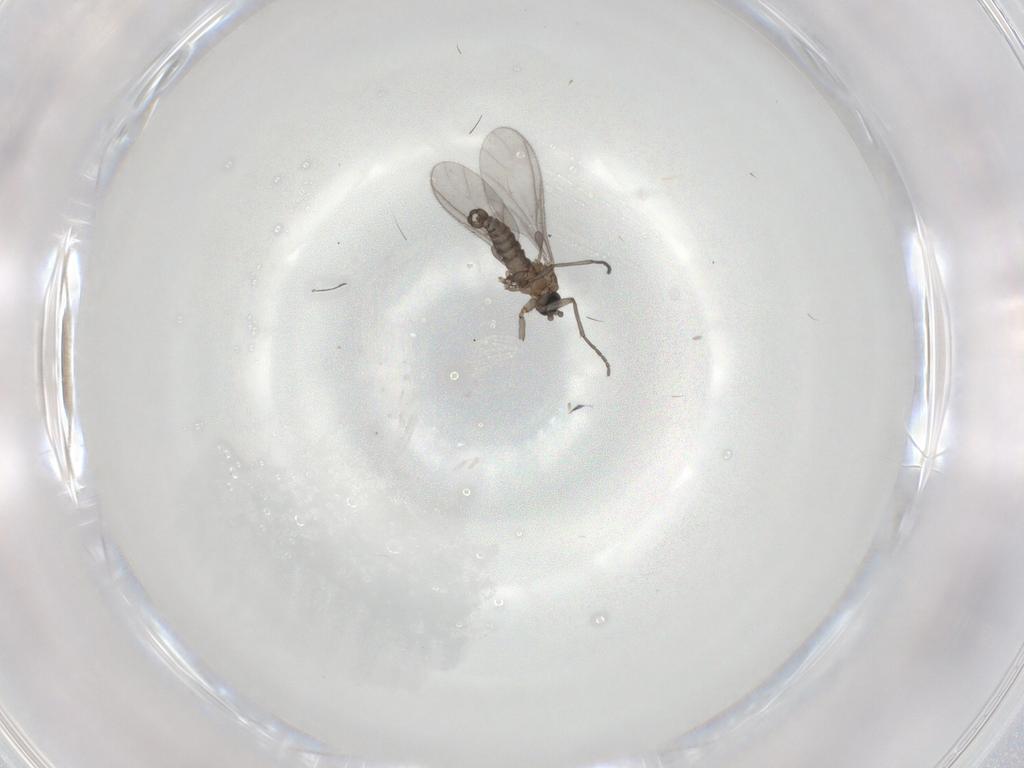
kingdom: Animalia
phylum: Arthropoda
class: Insecta
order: Diptera
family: Sciaridae
